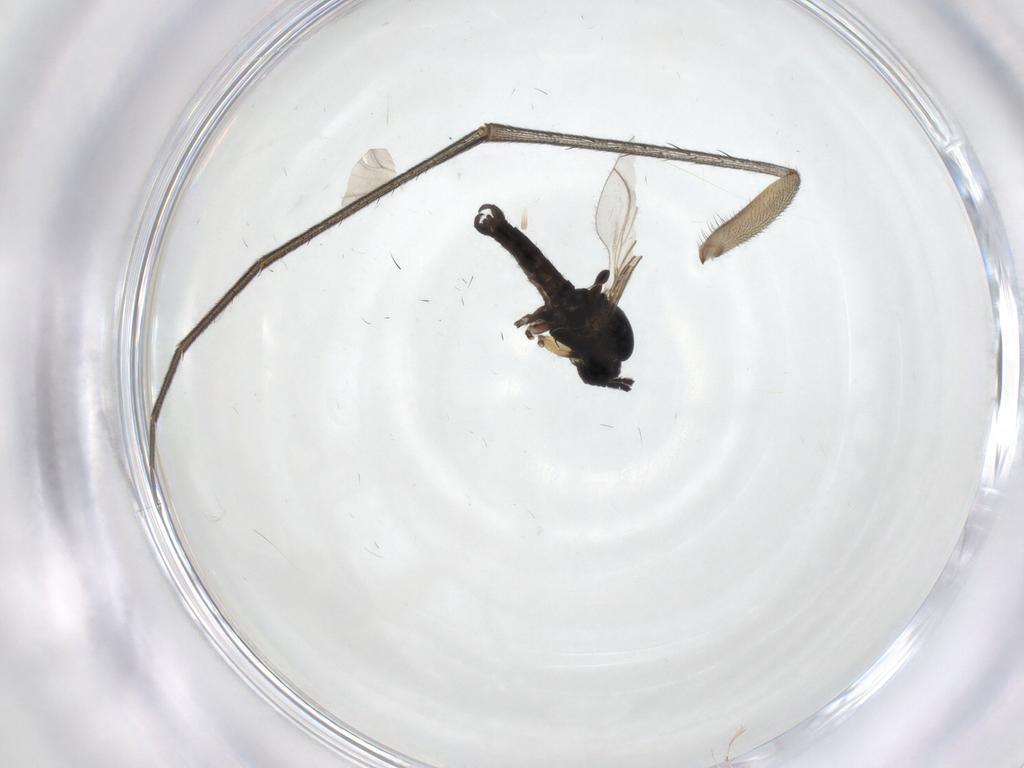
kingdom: Animalia
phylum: Arthropoda
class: Insecta
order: Diptera
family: Sciaridae
